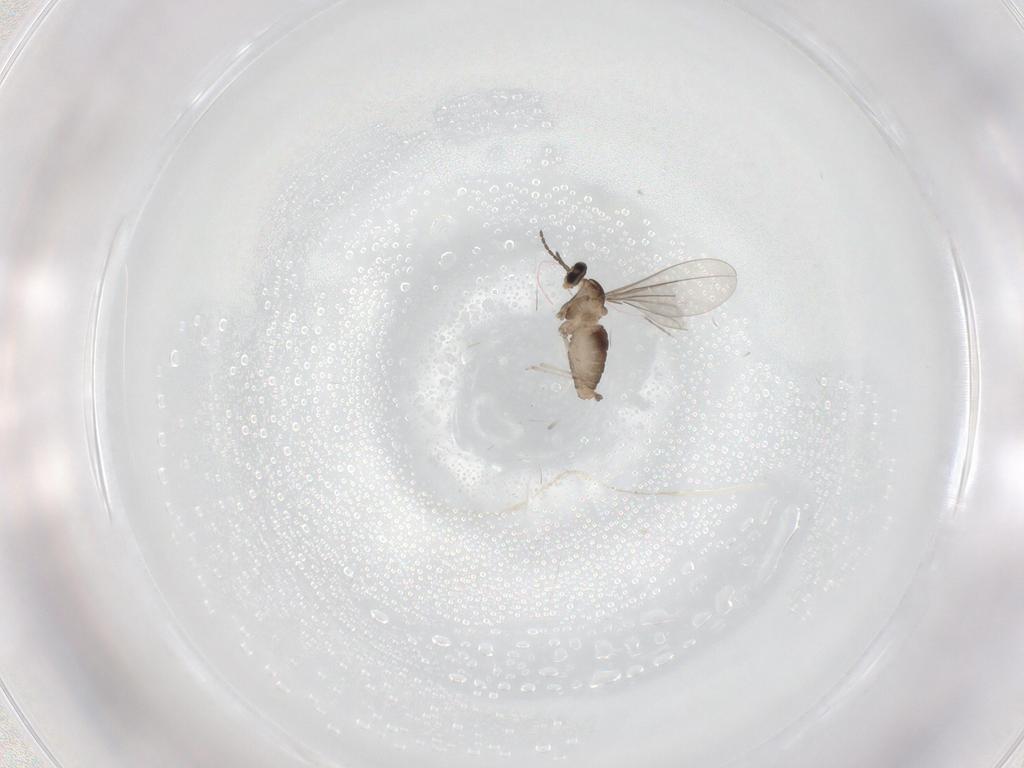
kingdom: Animalia
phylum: Arthropoda
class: Insecta
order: Diptera
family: Cecidomyiidae
